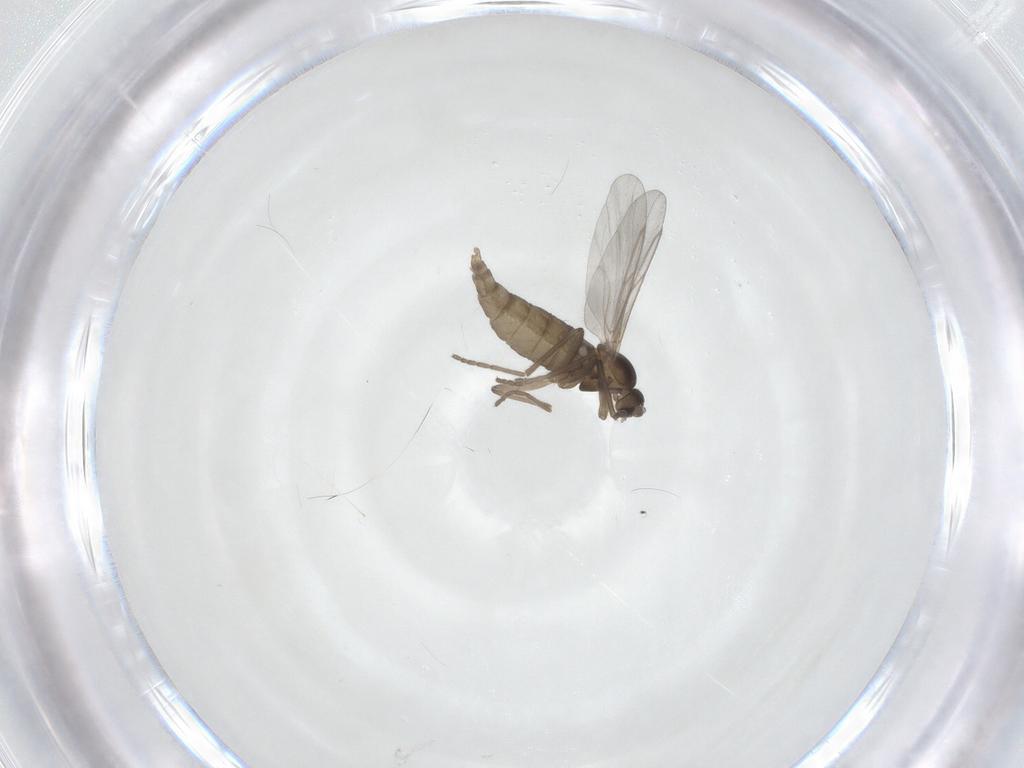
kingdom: Animalia
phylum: Arthropoda
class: Insecta
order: Diptera
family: Cecidomyiidae
